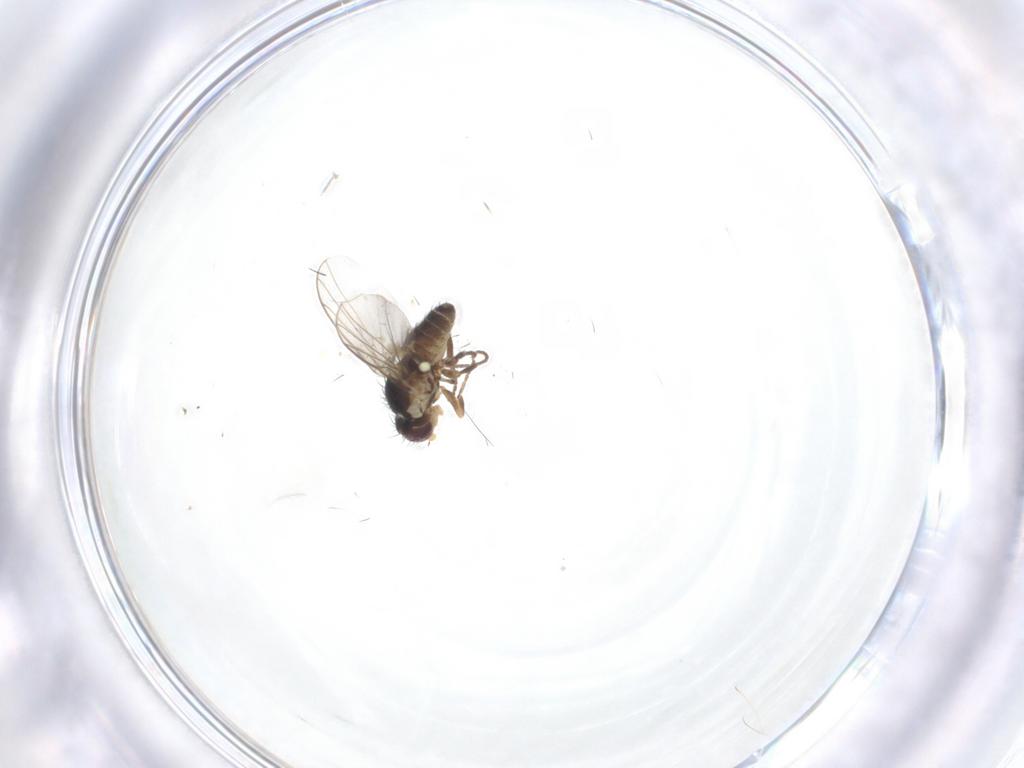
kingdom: Animalia
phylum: Arthropoda
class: Insecta
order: Diptera
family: Agromyzidae
